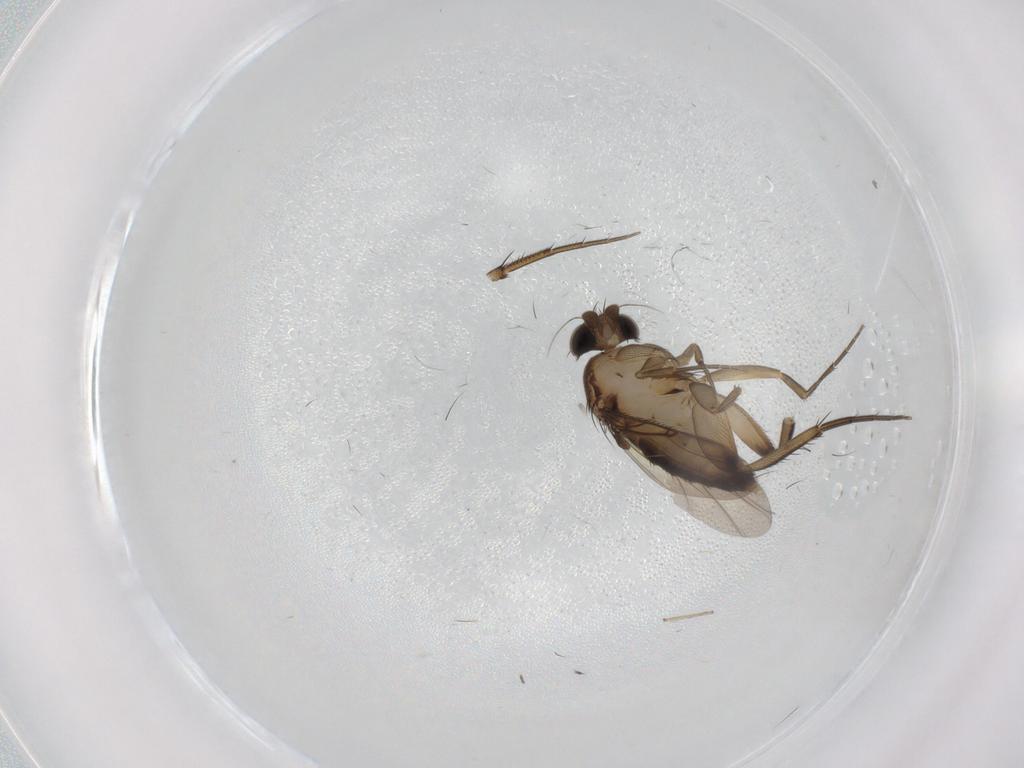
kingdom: Animalia
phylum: Arthropoda
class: Insecta
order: Diptera
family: Phoridae
